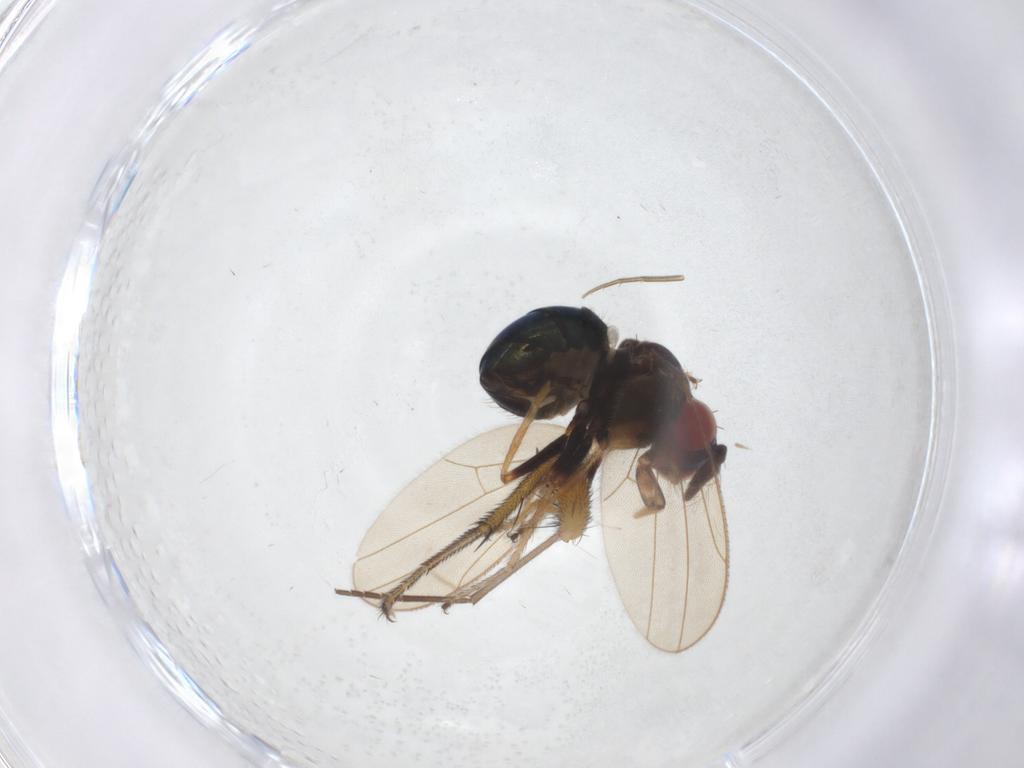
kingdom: Animalia
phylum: Arthropoda
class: Insecta
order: Diptera
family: Ephydridae
